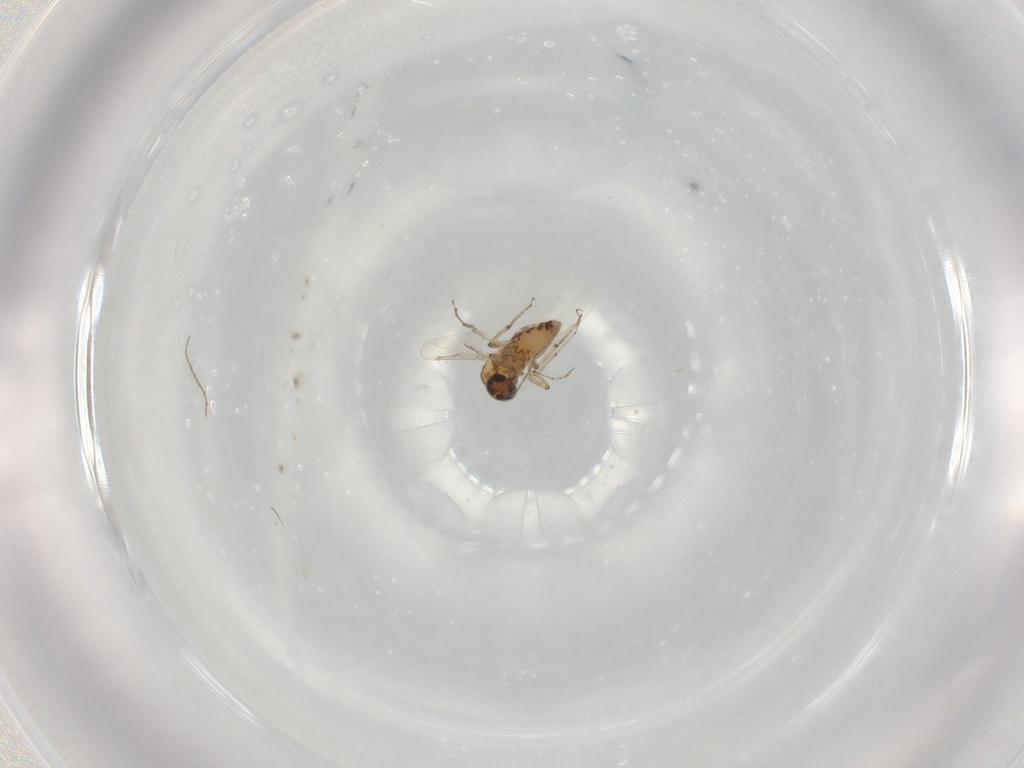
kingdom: Animalia
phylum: Arthropoda
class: Insecta
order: Diptera
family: Ceratopogonidae
